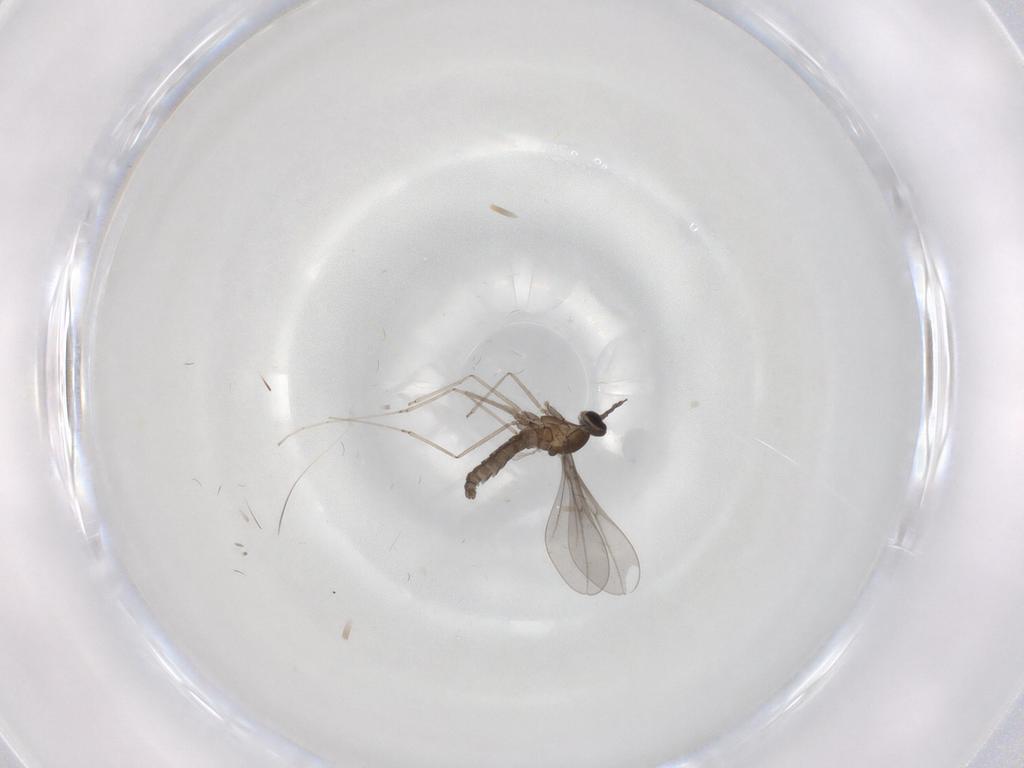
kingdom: Animalia
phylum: Arthropoda
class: Insecta
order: Diptera
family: Cecidomyiidae
